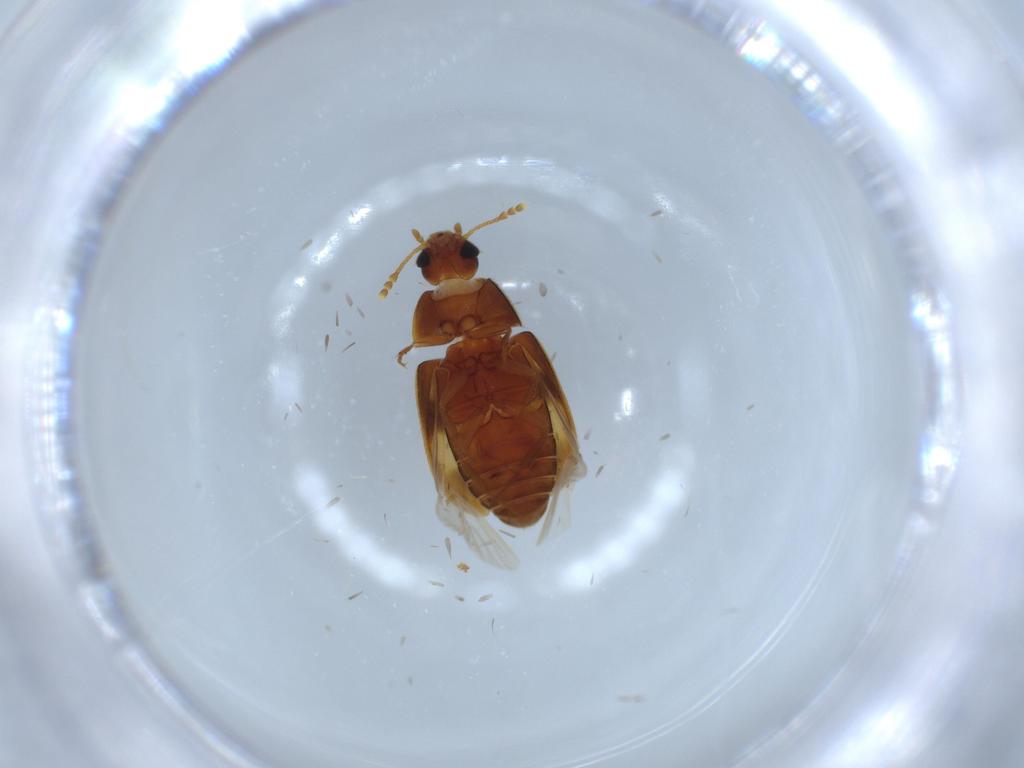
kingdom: Animalia
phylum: Arthropoda
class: Insecta
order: Coleoptera
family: Mycetophagidae
